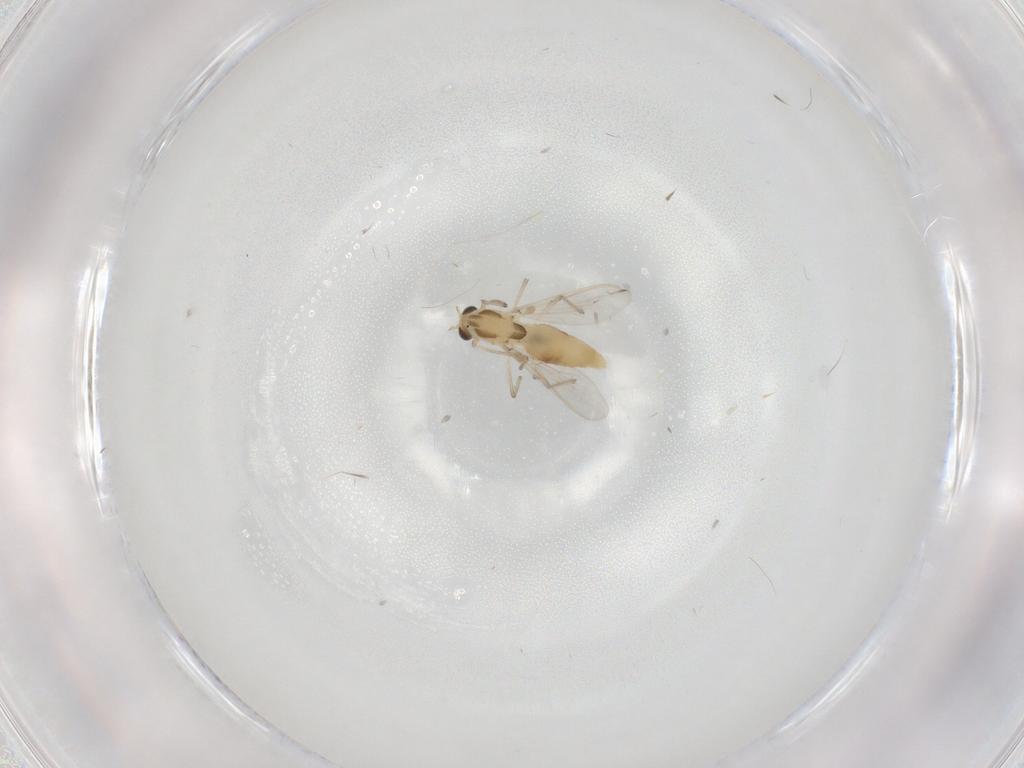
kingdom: Animalia
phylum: Arthropoda
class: Insecta
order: Diptera
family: Chironomidae
